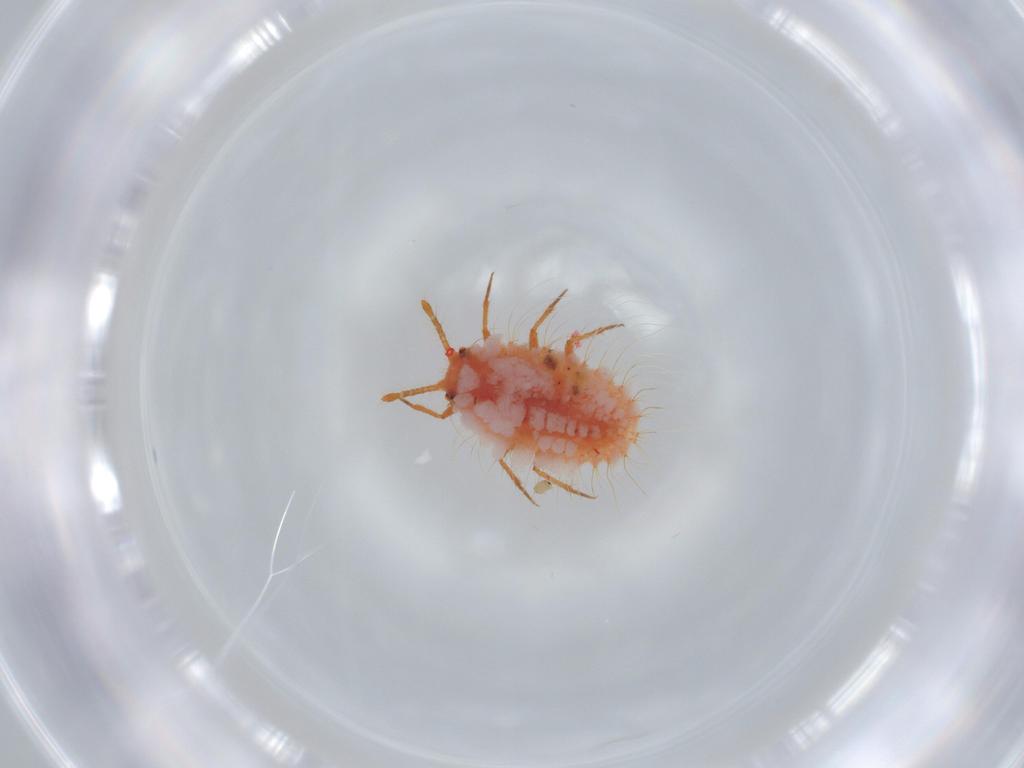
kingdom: Animalia
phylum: Arthropoda
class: Insecta
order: Hemiptera
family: Coccoidea_incertae_sedis
